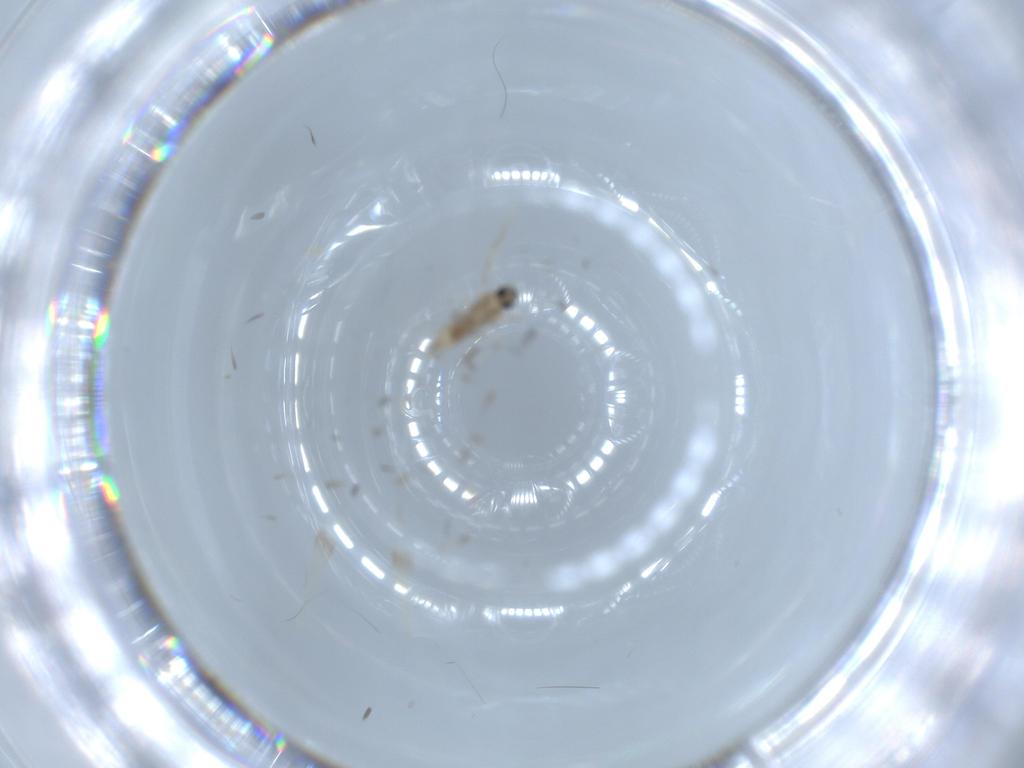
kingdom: Animalia
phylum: Arthropoda
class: Insecta
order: Diptera
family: Cecidomyiidae
